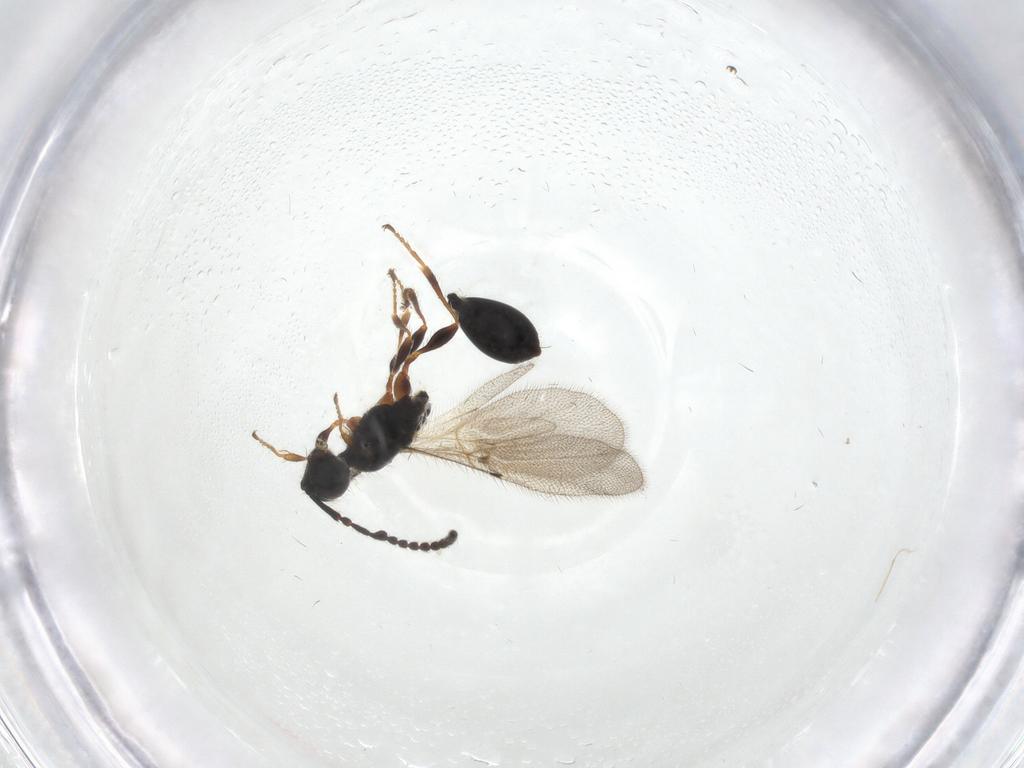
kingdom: Animalia
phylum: Arthropoda
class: Insecta
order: Hymenoptera
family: Diapriidae
